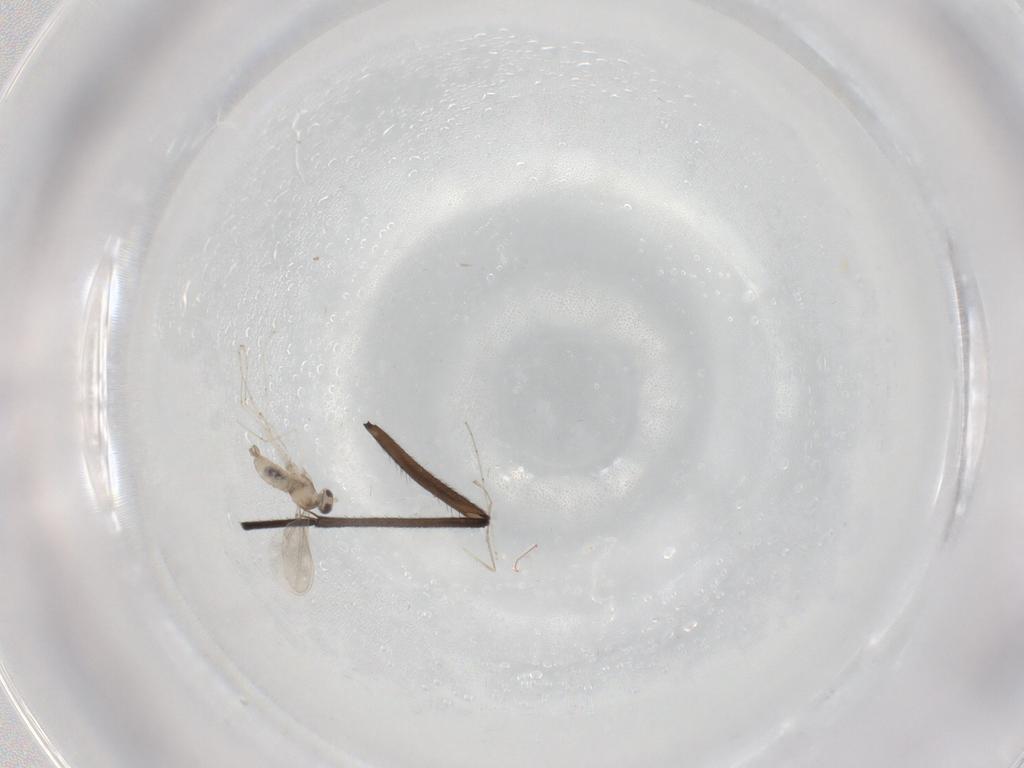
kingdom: Animalia
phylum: Arthropoda
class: Insecta
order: Diptera
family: Sciaridae
